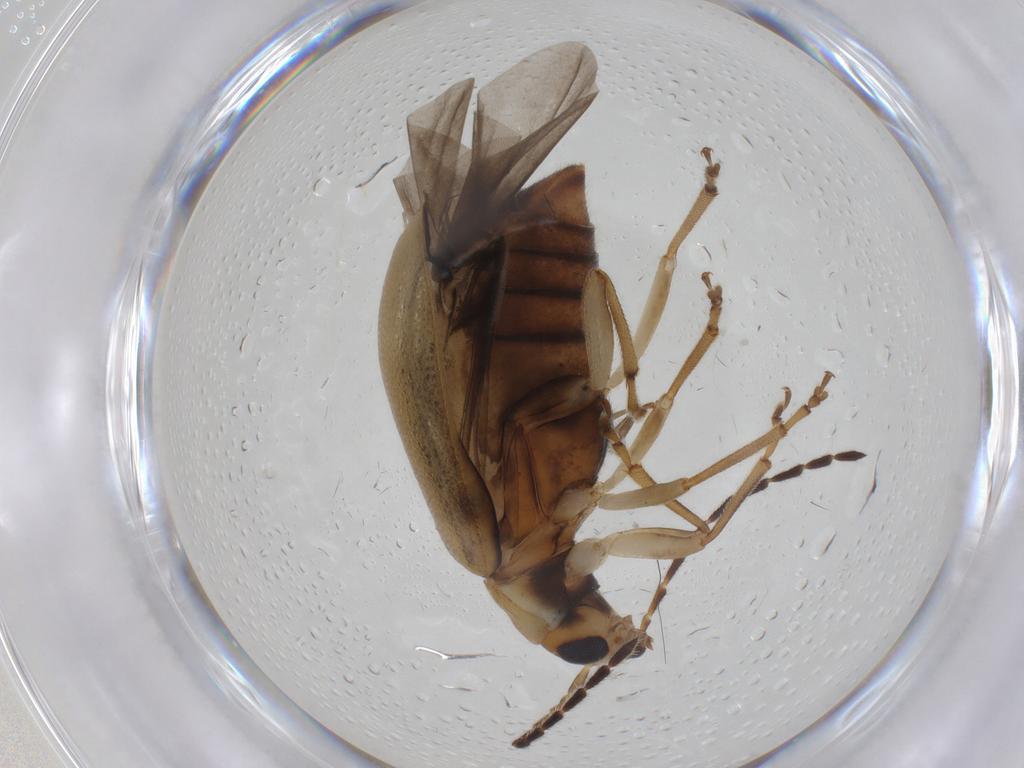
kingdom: Animalia
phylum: Arthropoda
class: Insecta
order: Coleoptera
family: Chrysomelidae
